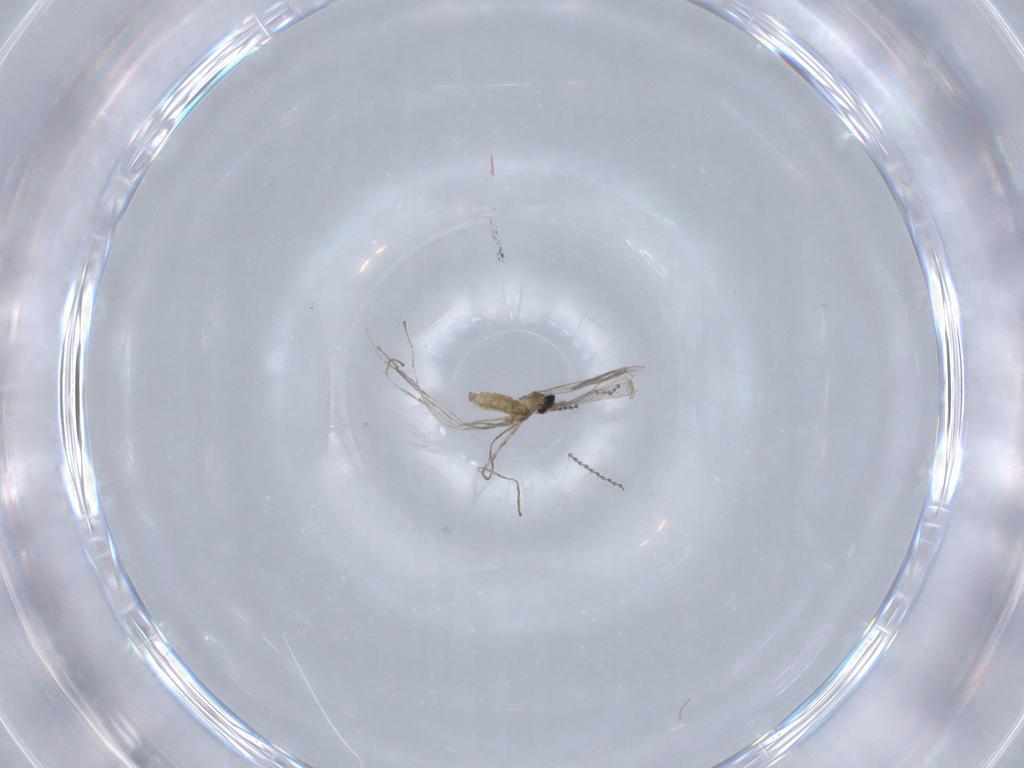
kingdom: Animalia
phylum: Arthropoda
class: Insecta
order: Diptera
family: Cecidomyiidae
